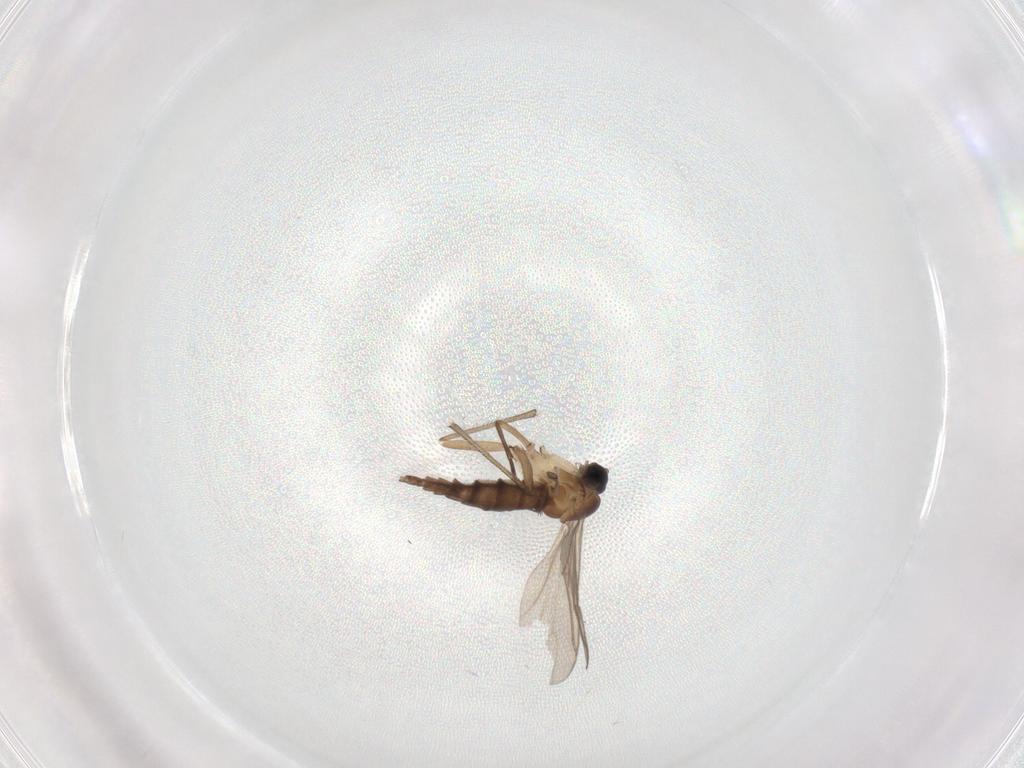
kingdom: Animalia
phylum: Arthropoda
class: Insecta
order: Diptera
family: Sciaridae
